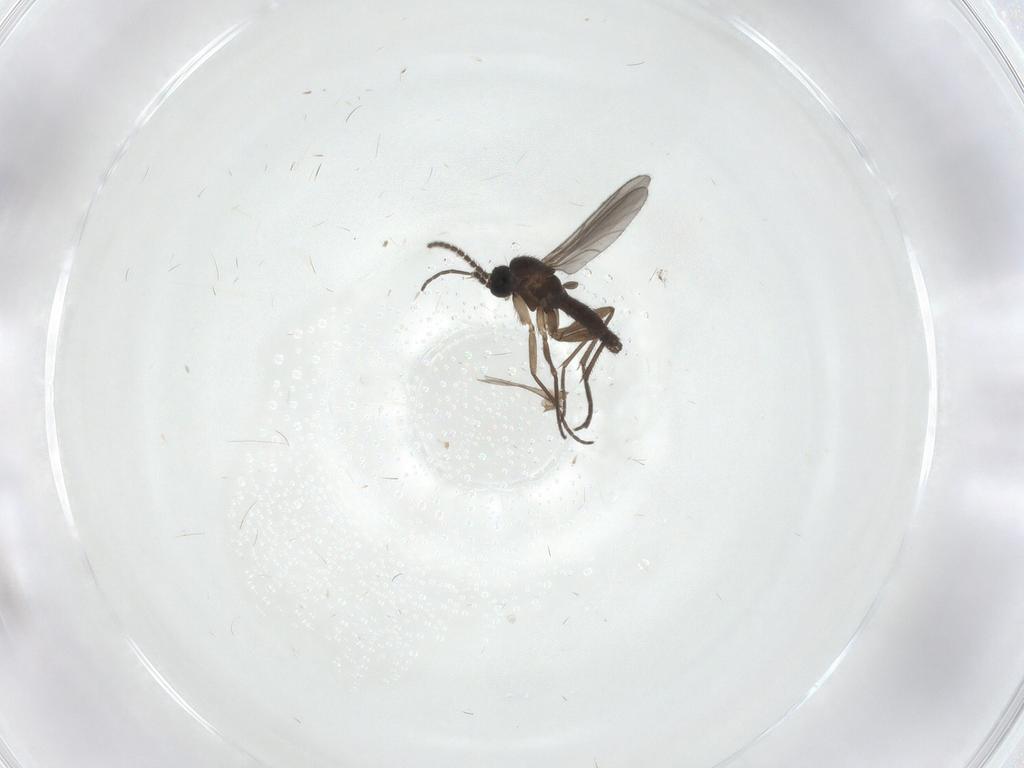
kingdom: Animalia
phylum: Arthropoda
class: Insecta
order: Diptera
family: Sciaridae
